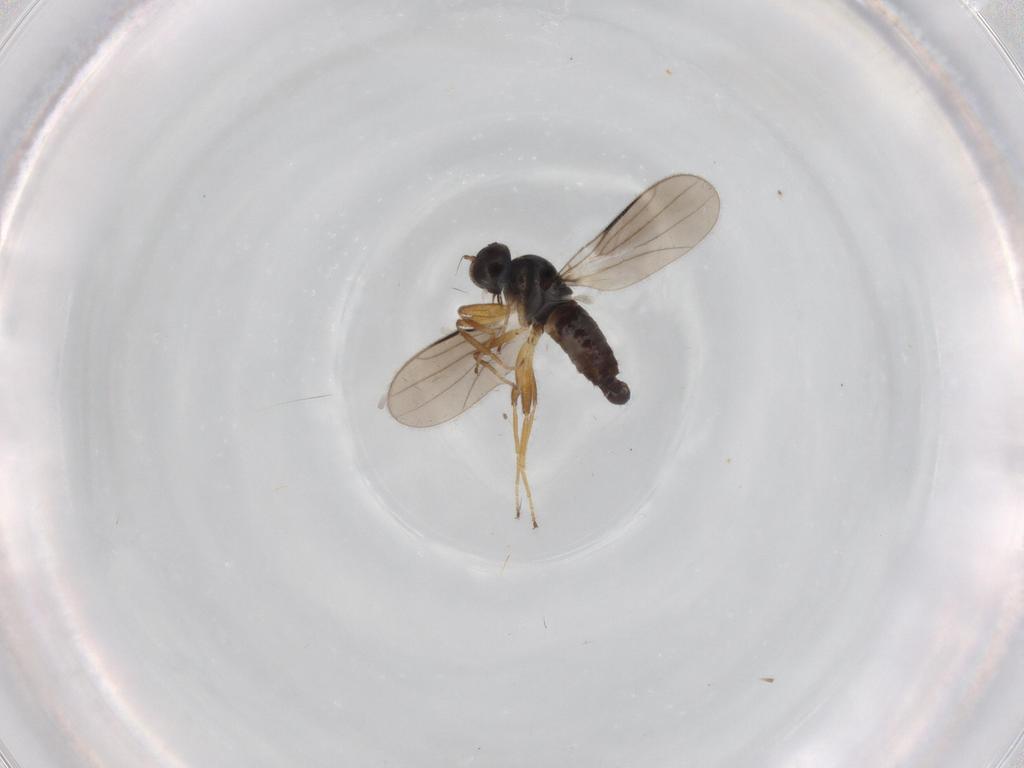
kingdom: Animalia
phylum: Arthropoda
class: Insecta
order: Diptera
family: Hybotidae
